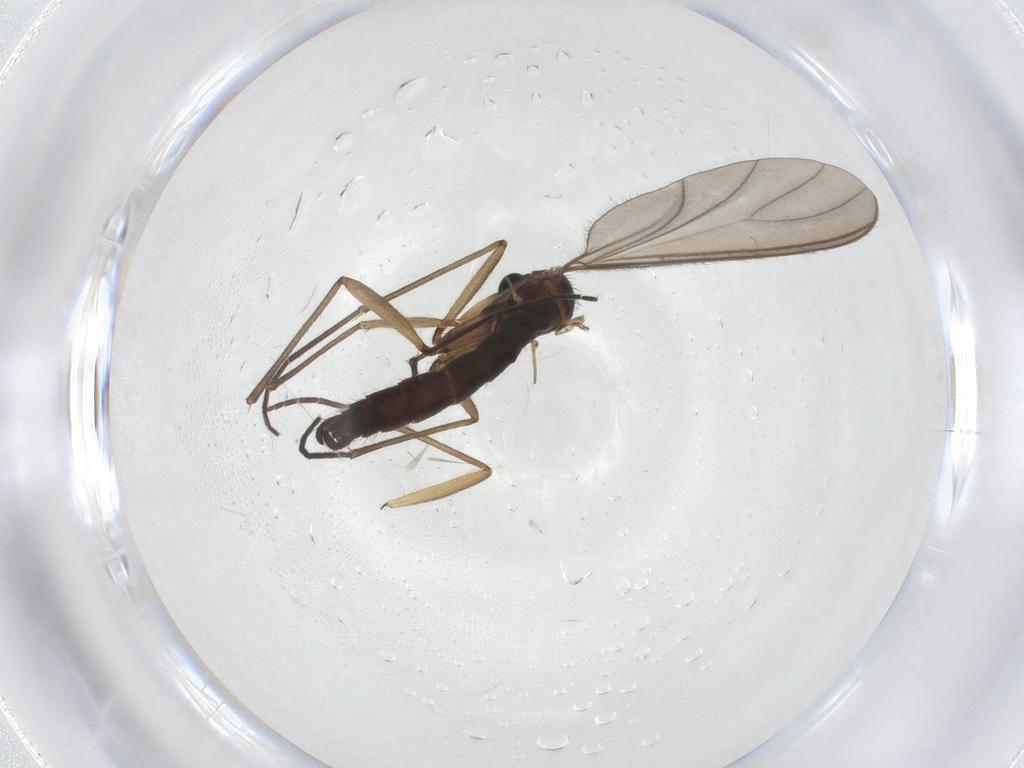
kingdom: Animalia
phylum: Arthropoda
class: Insecta
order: Diptera
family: Sciaridae
